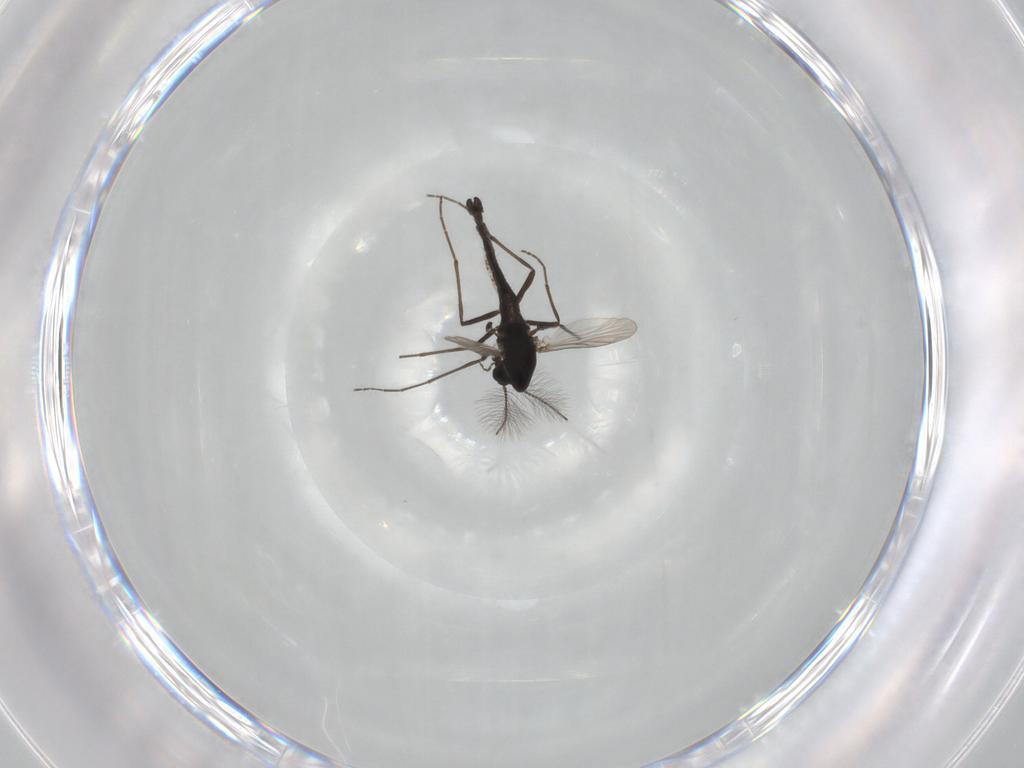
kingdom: Animalia
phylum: Arthropoda
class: Insecta
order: Diptera
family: Chironomidae
